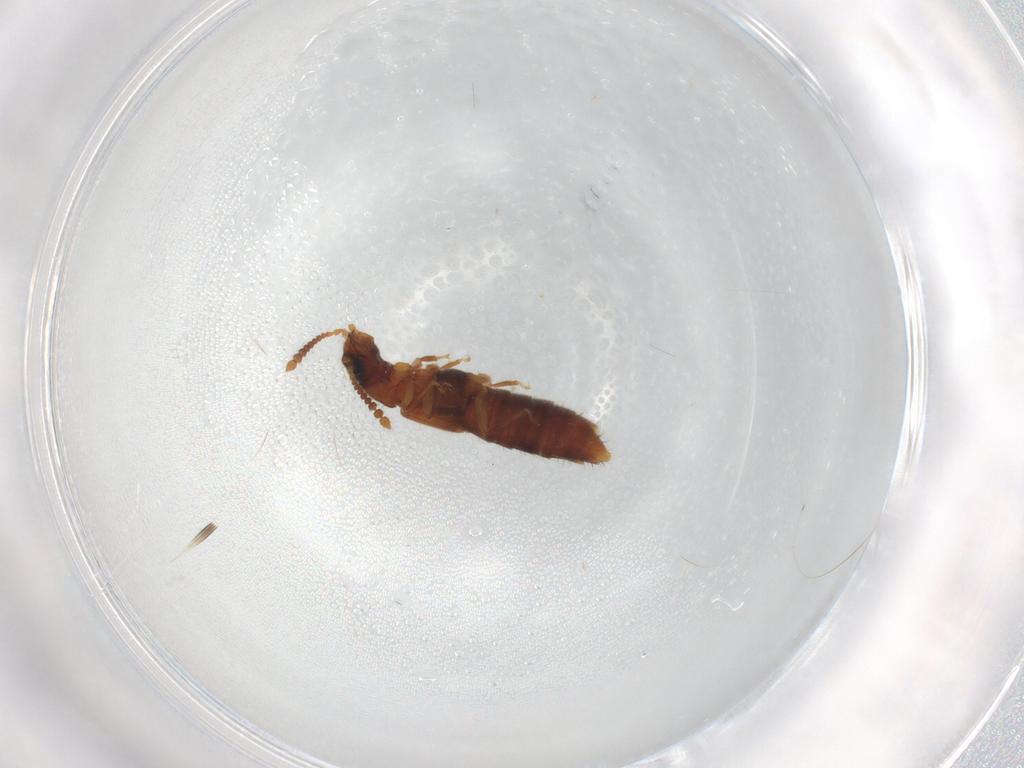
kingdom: Animalia
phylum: Arthropoda
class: Insecta
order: Coleoptera
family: Staphylinidae
